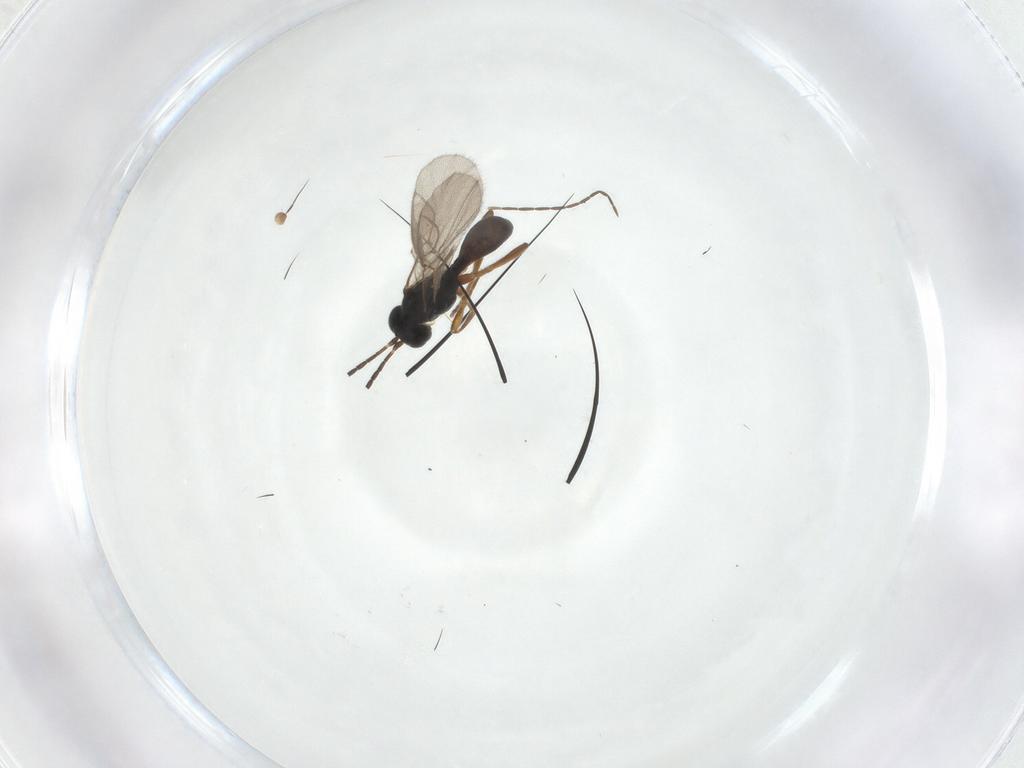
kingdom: Animalia
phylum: Arthropoda
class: Insecta
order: Hymenoptera
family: Braconidae
